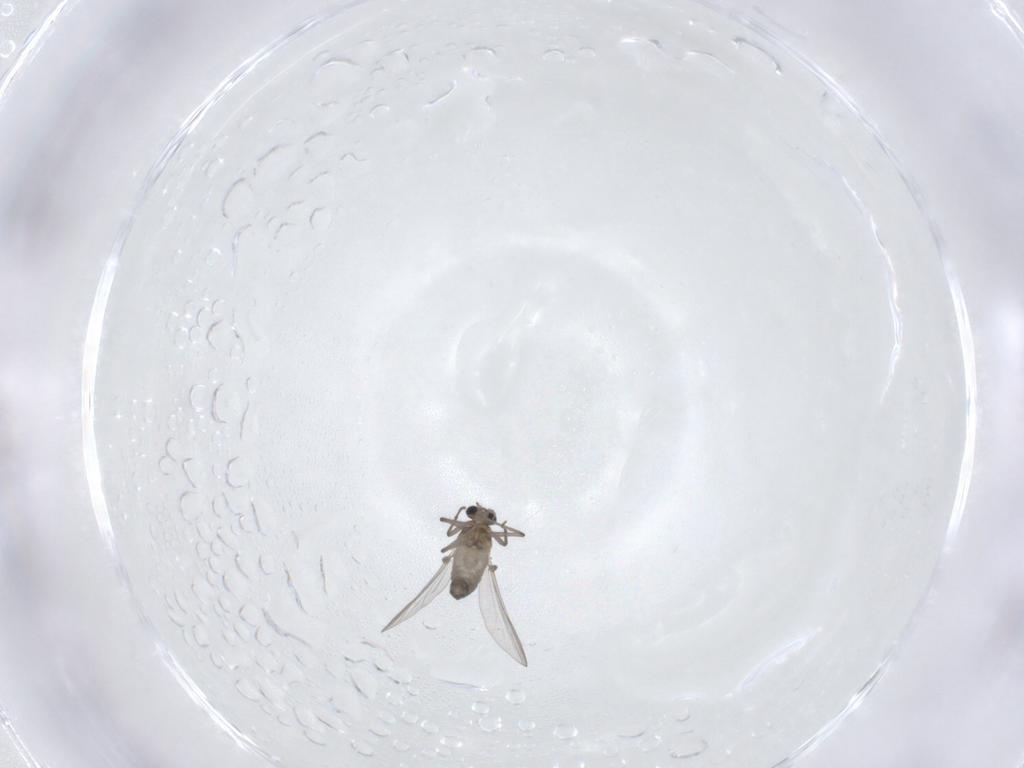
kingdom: Animalia
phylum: Arthropoda
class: Insecta
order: Diptera
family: Chironomidae
